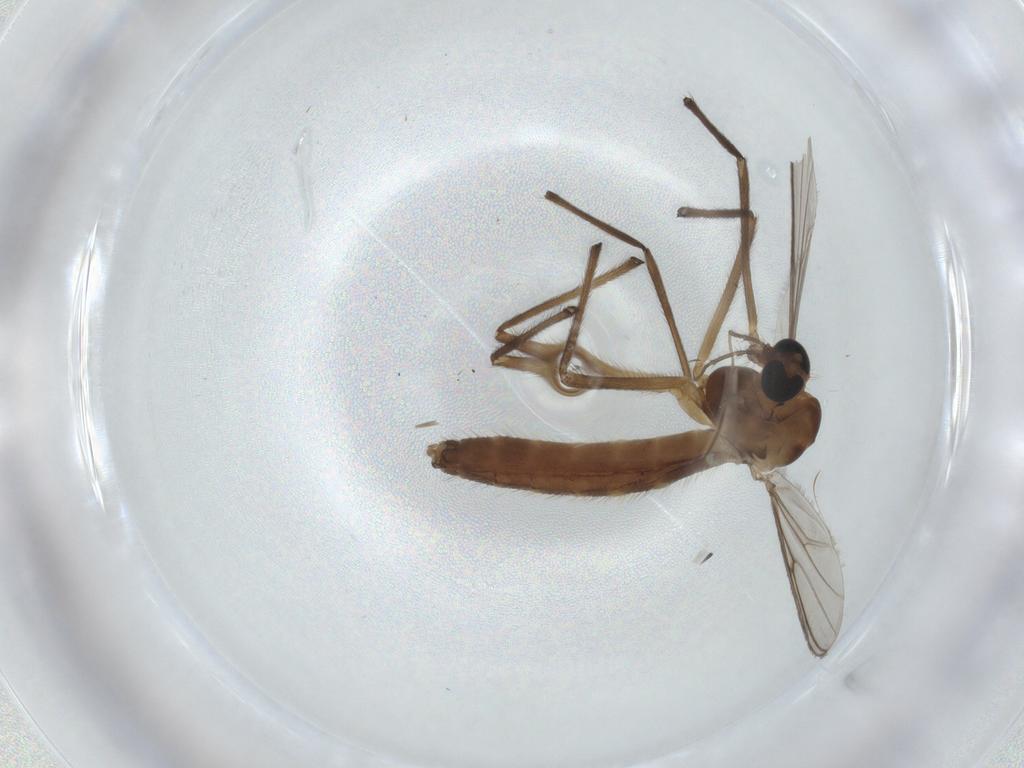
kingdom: Animalia
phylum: Arthropoda
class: Insecta
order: Diptera
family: Chironomidae
